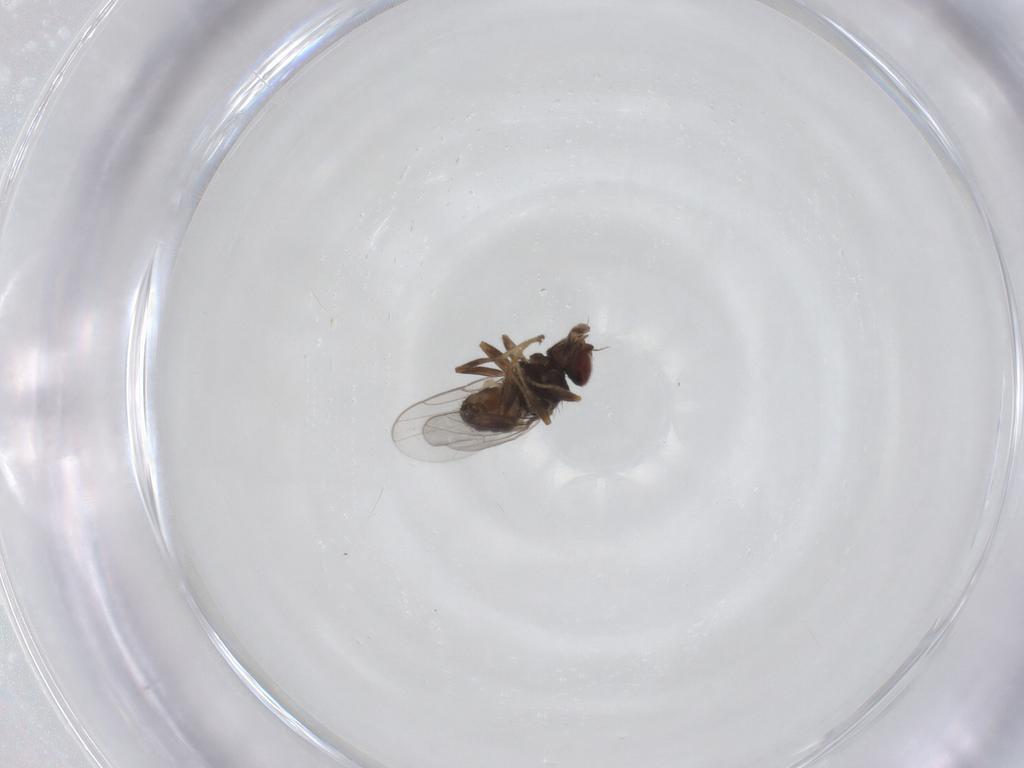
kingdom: Animalia
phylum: Arthropoda
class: Insecta
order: Diptera
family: Chloropidae
